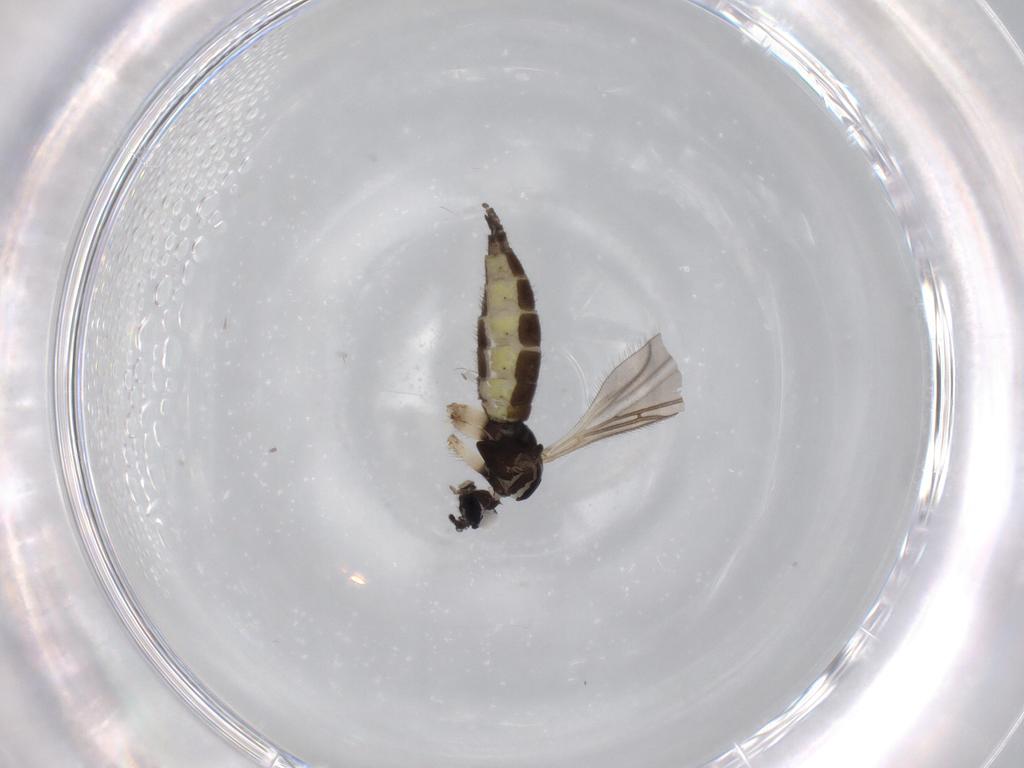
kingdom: Animalia
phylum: Arthropoda
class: Insecta
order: Diptera
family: Sciaridae
